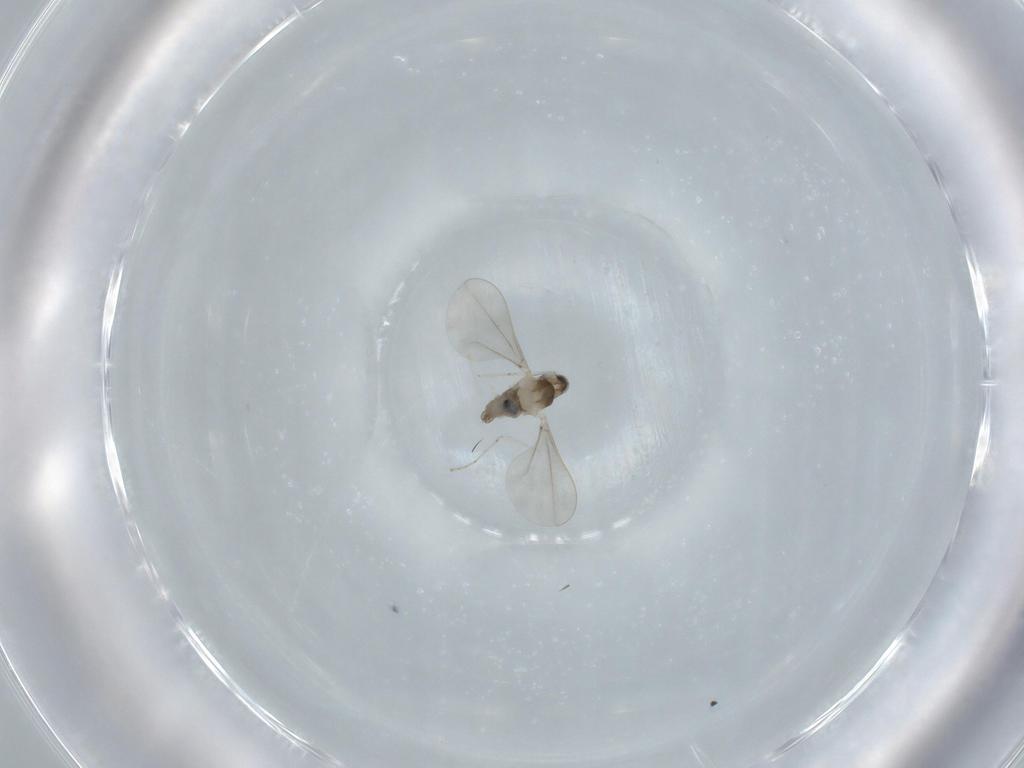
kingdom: Animalia
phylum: Arthropoda
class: Insecta
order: Diptera
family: Cecidomyiidae
